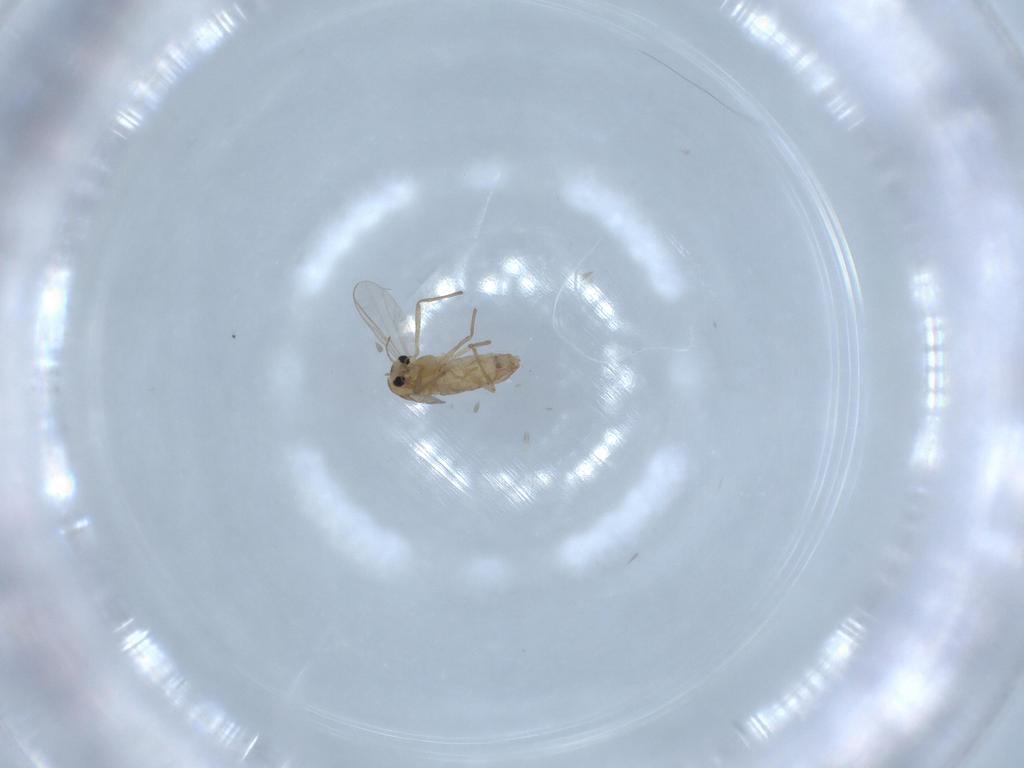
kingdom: Animalia
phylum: Arthropoda
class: Insecta
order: Diptera
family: Chironomidae
